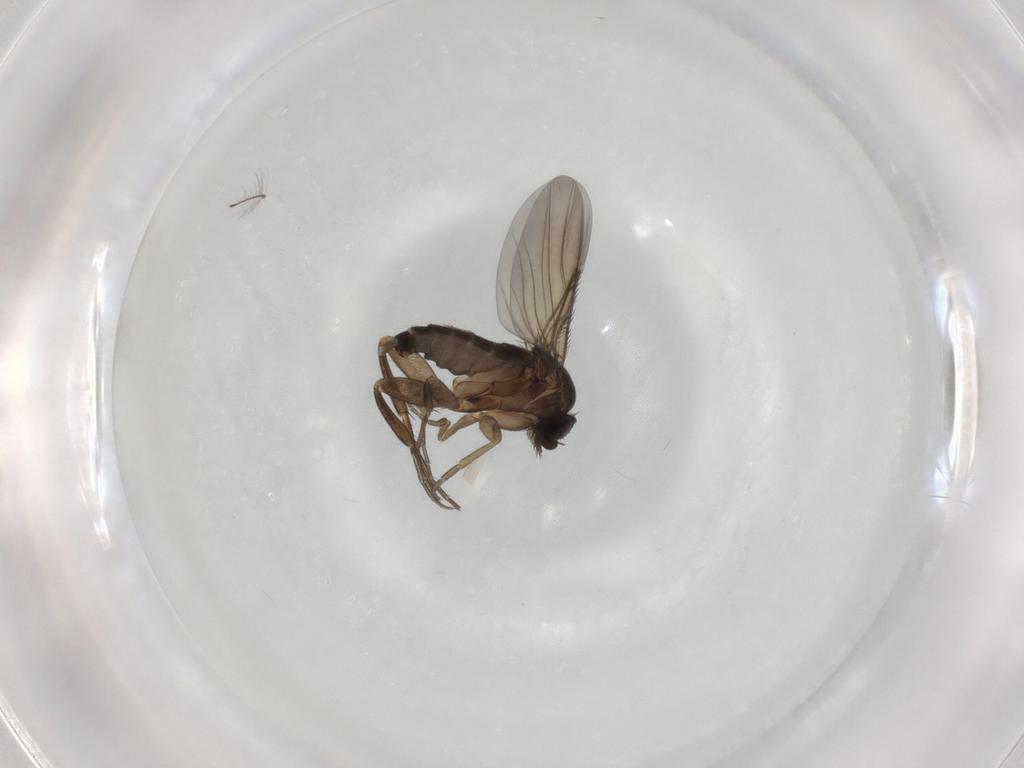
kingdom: Animalia
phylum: Arthropoda
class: Insecta
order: Diptera
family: Phoridae
